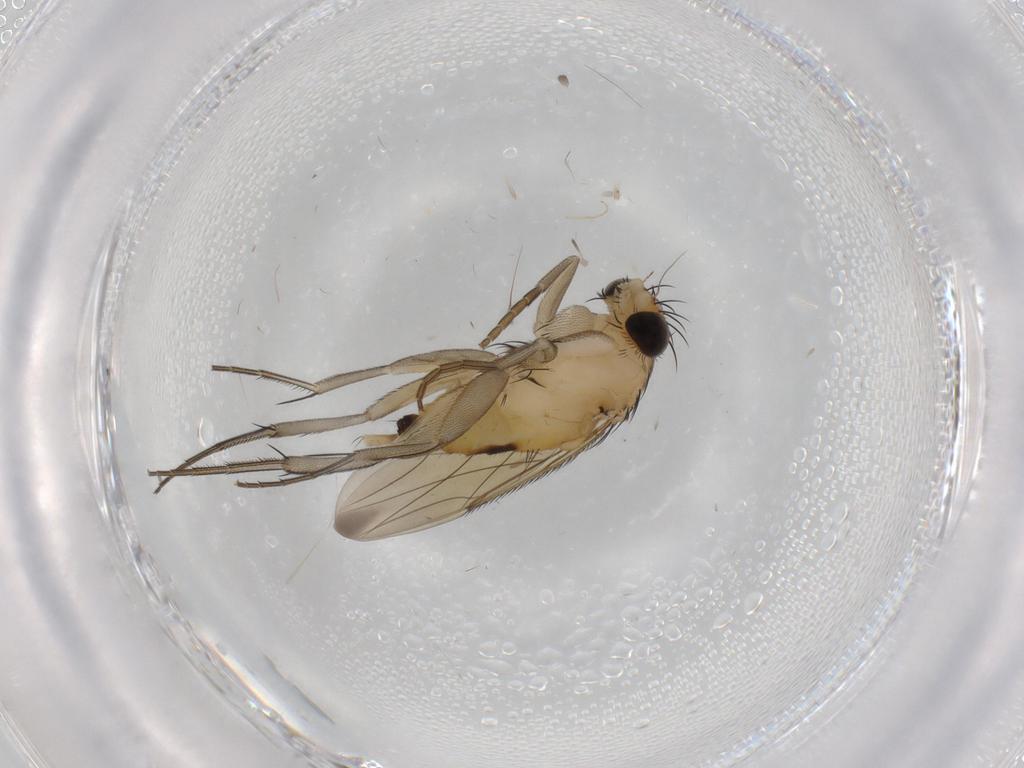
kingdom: Animalia
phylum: Arthropoda
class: Insecta
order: Diptera
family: Phoridae
